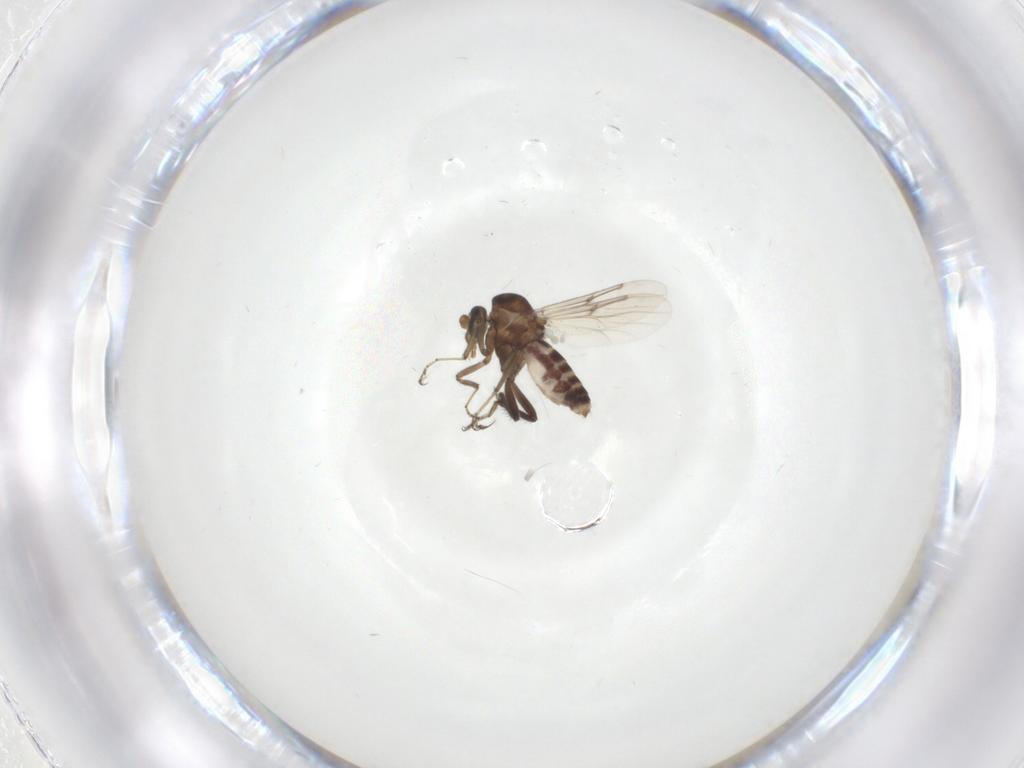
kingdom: Animalia
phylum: Arthropoda
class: Insecta
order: Diptera
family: Ceratopogonidae
